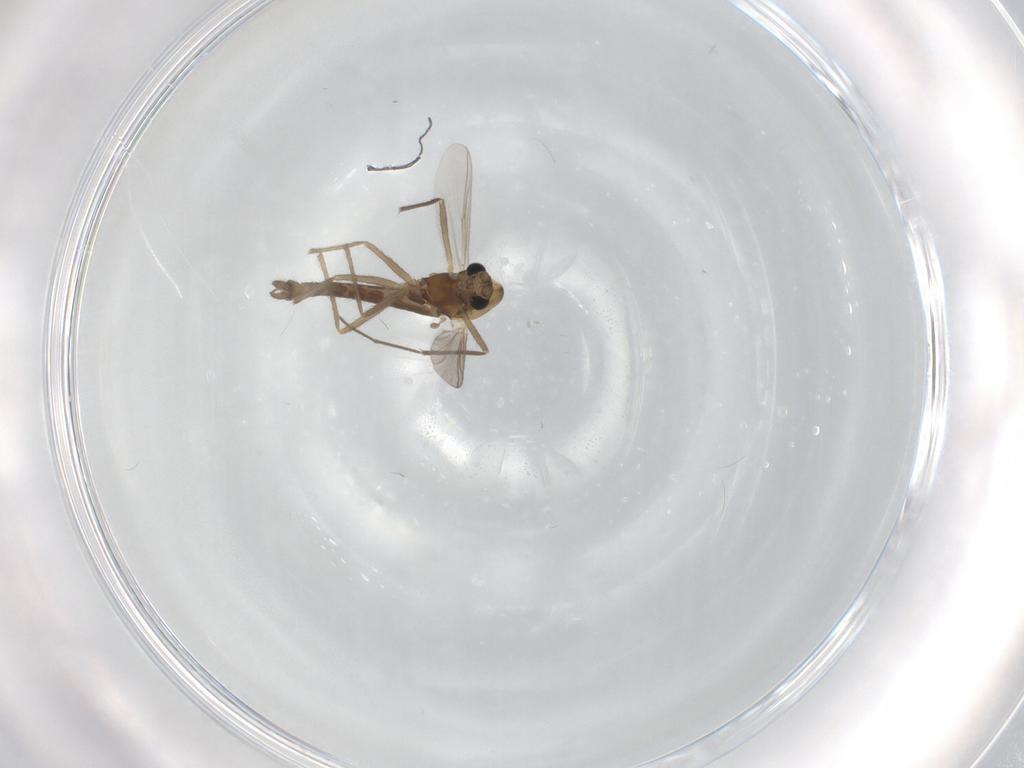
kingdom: Animalia
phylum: Arthropoda
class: Insecta
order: Diptera
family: Chironomidae
